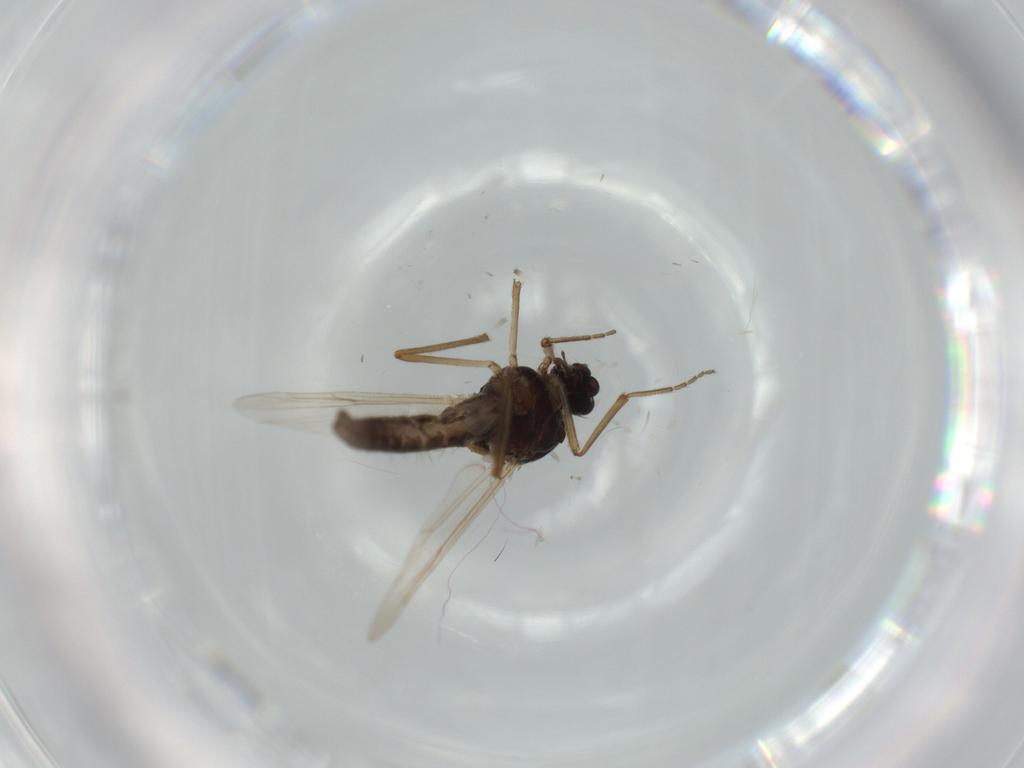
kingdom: Animalia
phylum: Arthropoda
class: Insecta
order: Diptera
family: Ceratopogonidae
